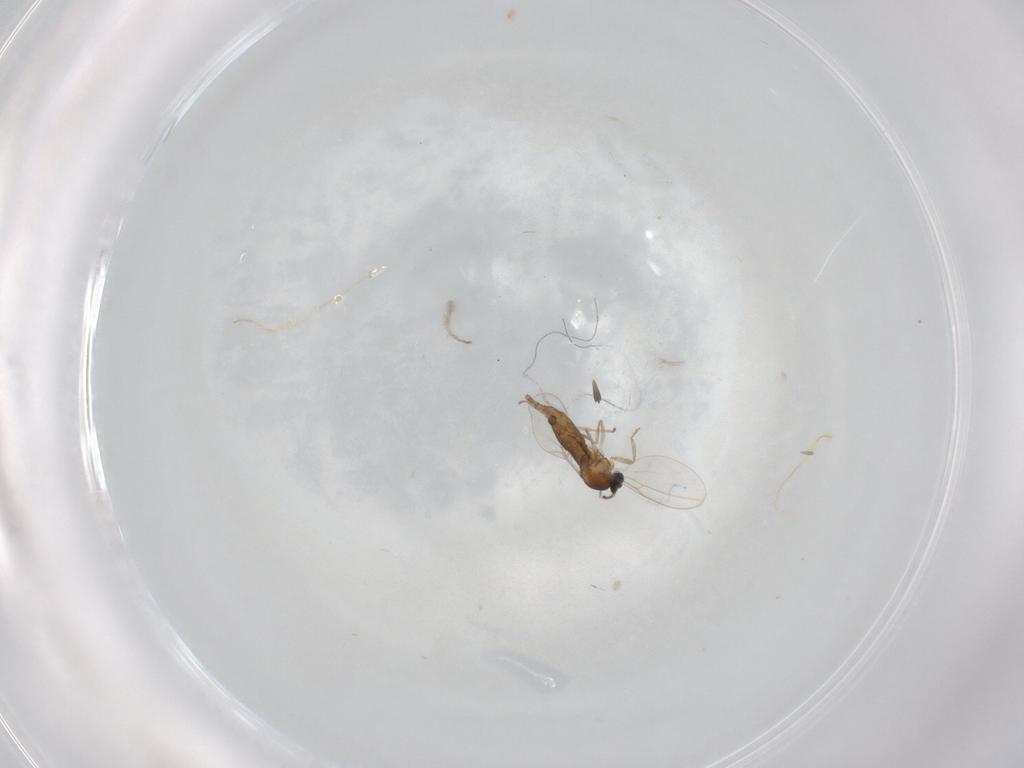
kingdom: Animalia
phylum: Arthropoda
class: Insecta
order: Diptera
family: Cecidomyiidae
